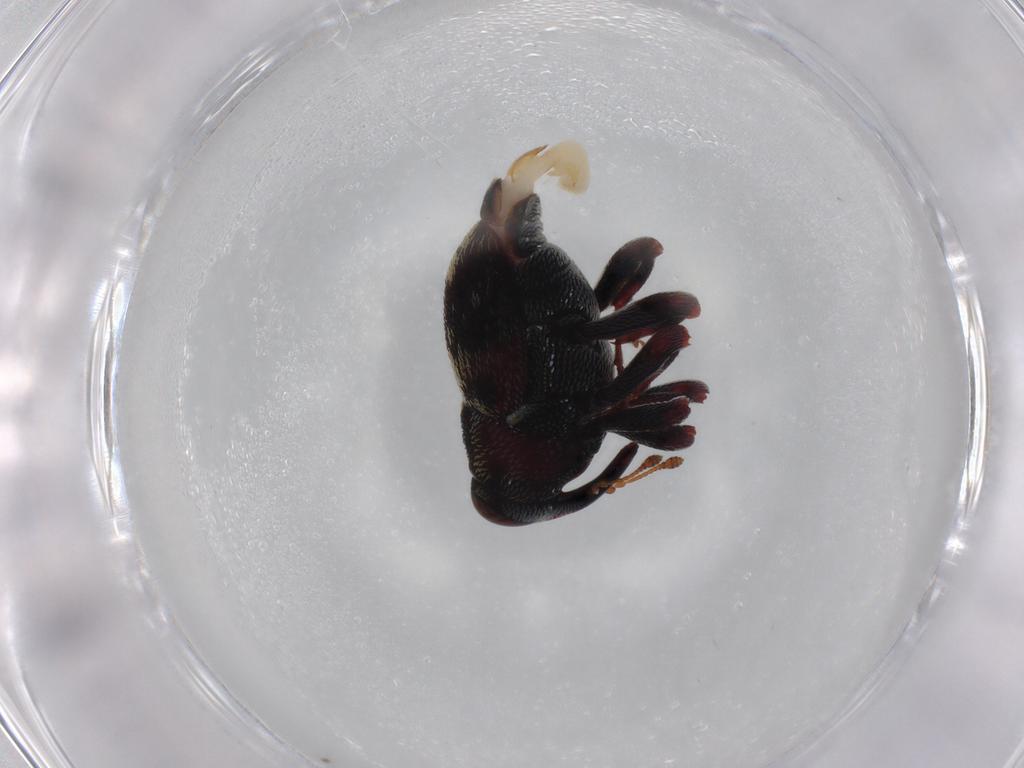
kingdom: Animalia
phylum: Arthropoda
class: Insecta
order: Coleoptera
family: Curculionidae
